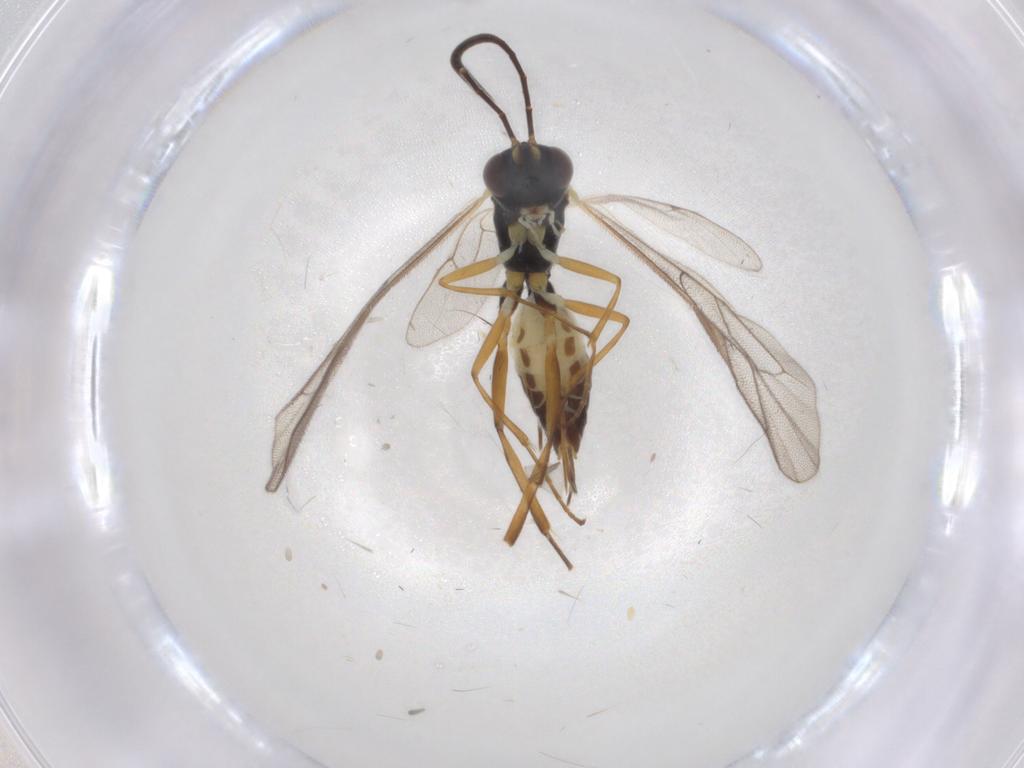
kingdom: Animalia
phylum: Arthropoda
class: Insecta
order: Hymenoptera
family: Ichneumonidae
